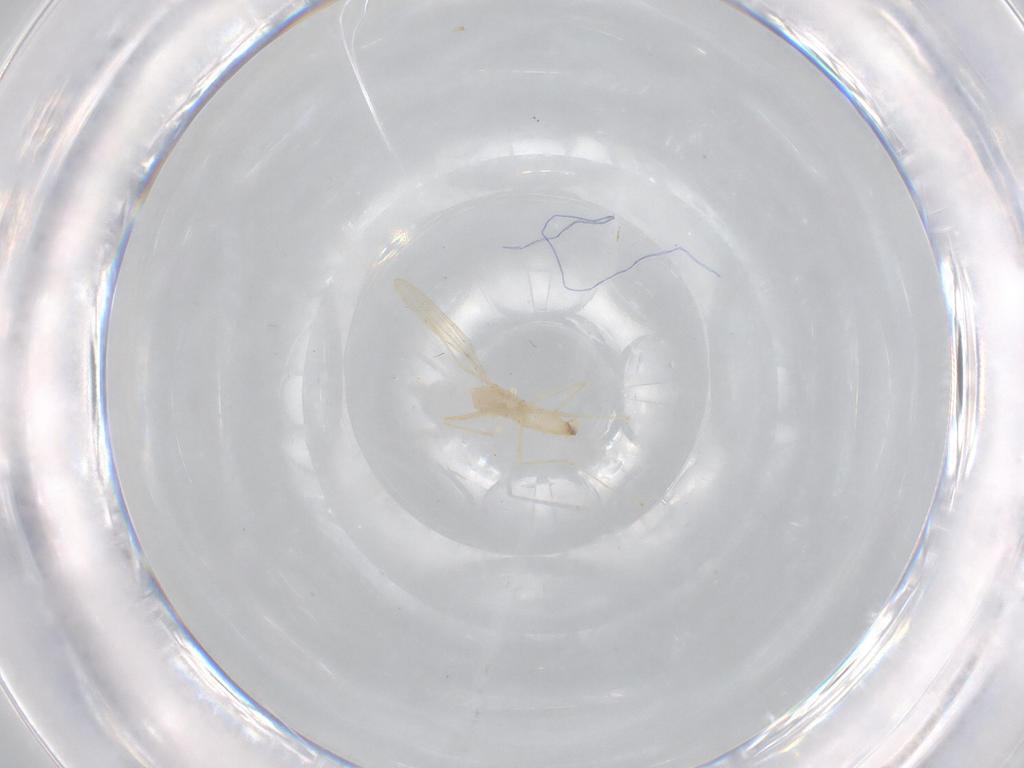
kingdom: Animalia
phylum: Arthropoda
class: Insecta
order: Diptera
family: Cecidomyiidae
